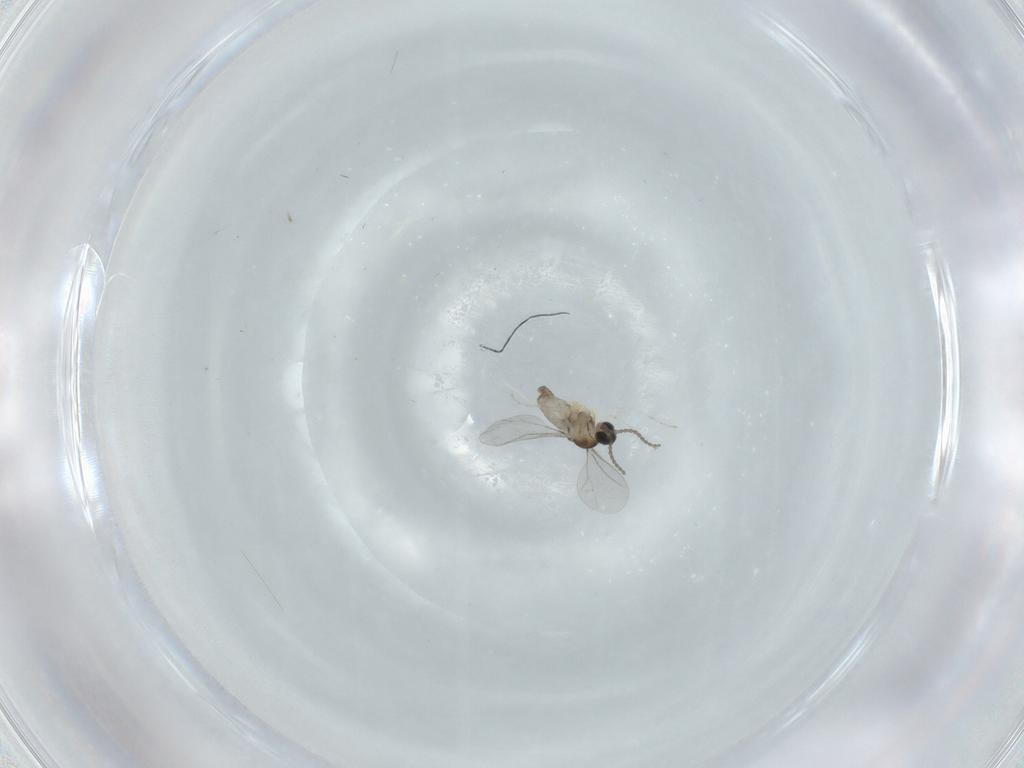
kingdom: Animalia
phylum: Arthropoda
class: Insecta
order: Diptera
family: Cecidomyiidae
